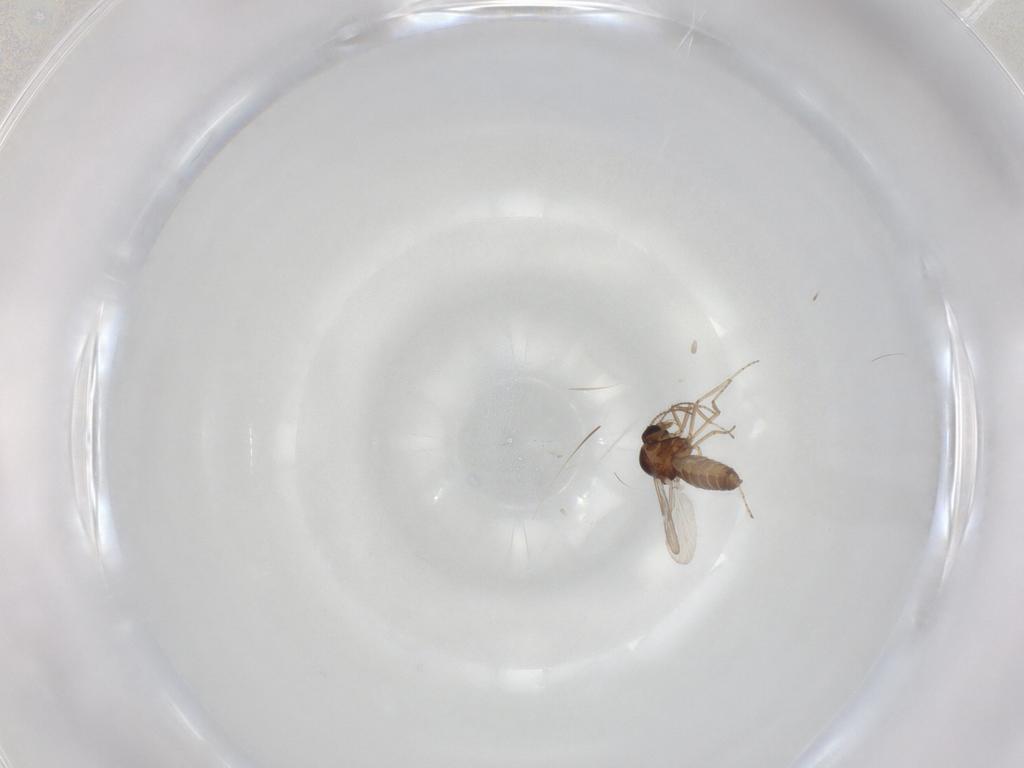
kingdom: Animalia
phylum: Arthropoda
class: Insecta
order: Diptera
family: Ceratopogonidae
